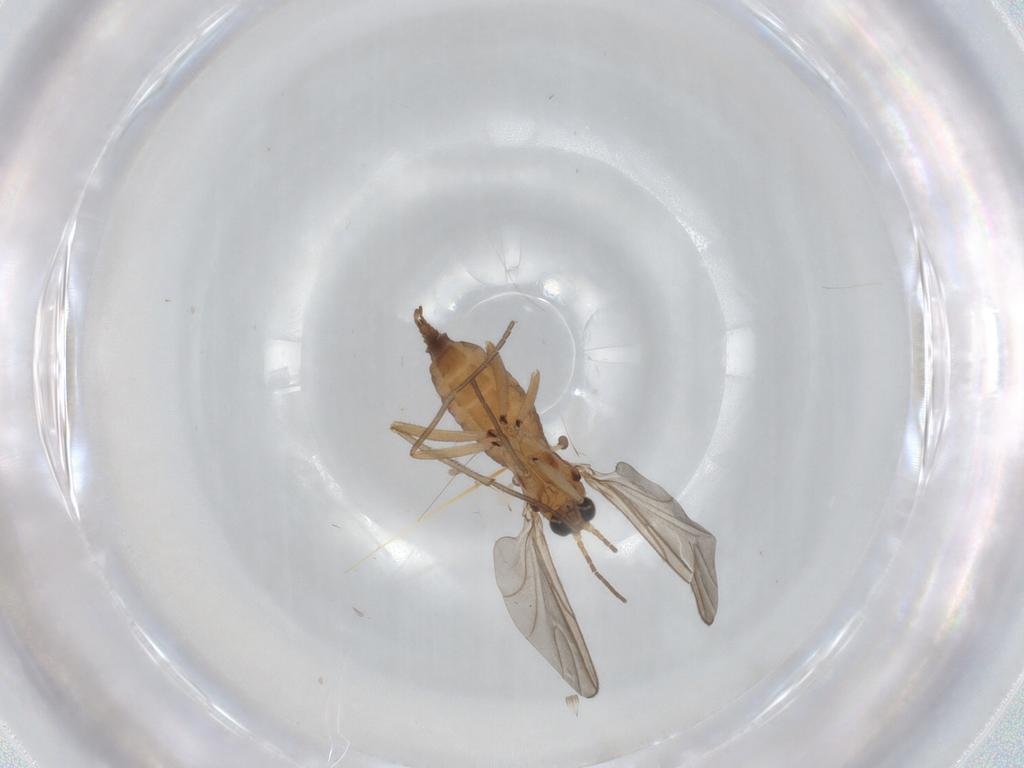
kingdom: Animalia
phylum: Arthropoda
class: Insecta
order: Diptera
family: Sciaridae
